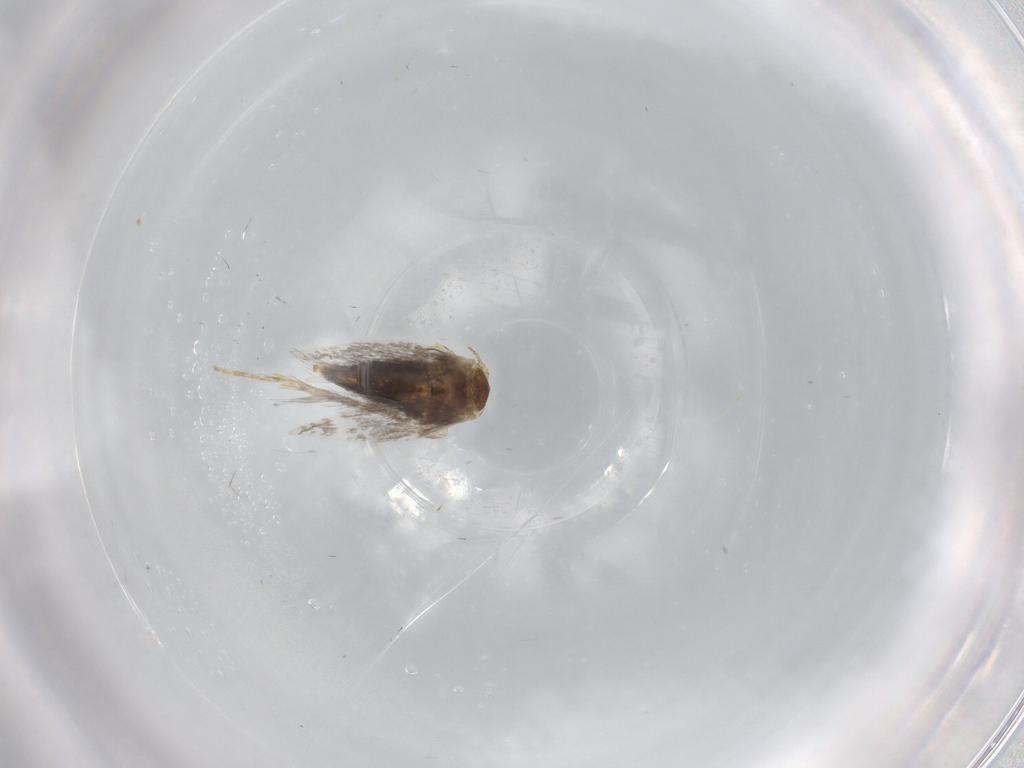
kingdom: Animalia
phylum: Arthropoda
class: Insecta
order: Lepidoptera
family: Nepticulidae
